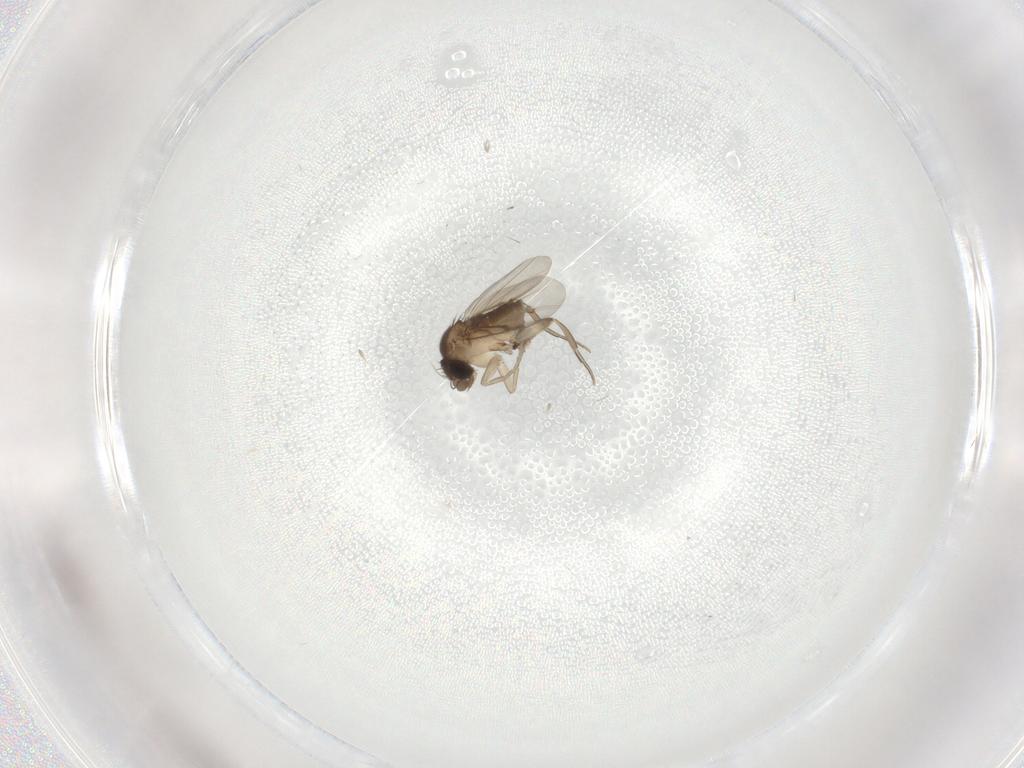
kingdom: Animalia
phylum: Arthropoda
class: Insecta
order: Diptera
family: Phoridae
